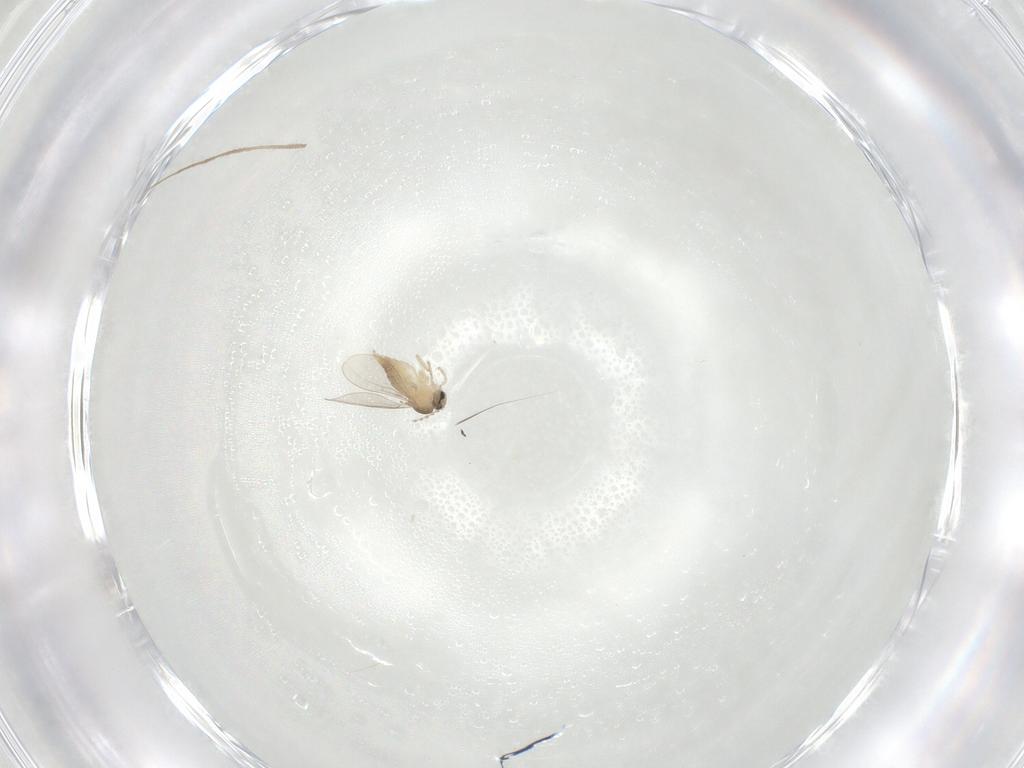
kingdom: Animalia
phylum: Arthropoda
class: Insecta
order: Diptera
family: Cecidomyiidae
